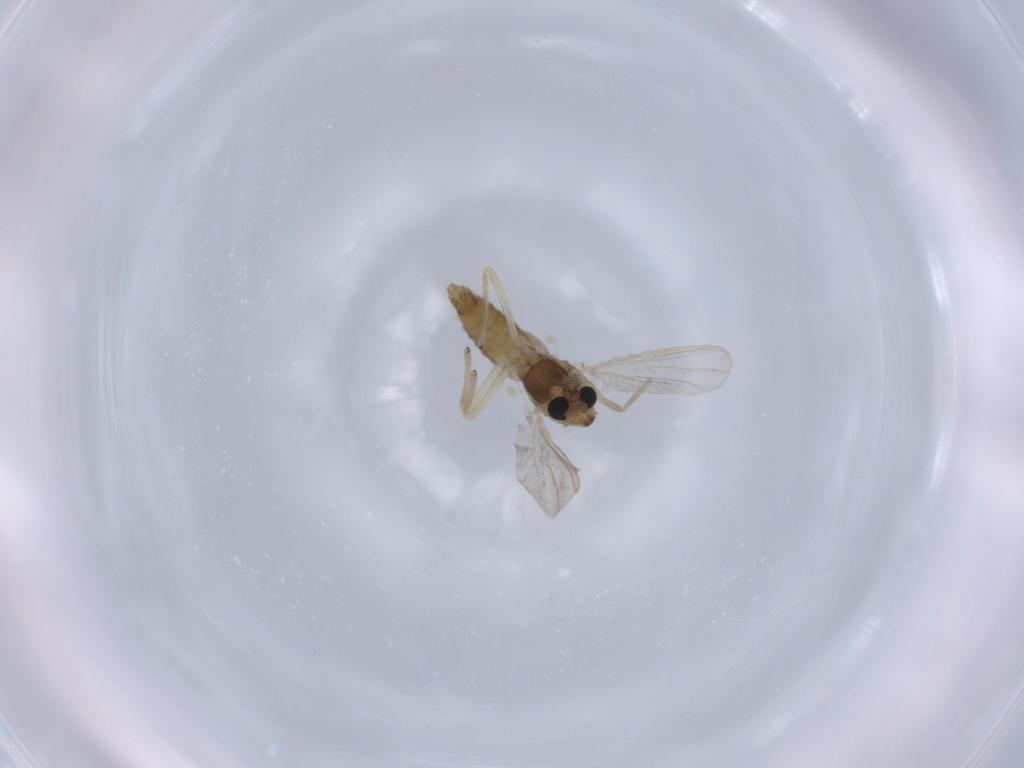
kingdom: Animalia
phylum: Arthropoda
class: Insecta
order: Diptera
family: Chironomidae
